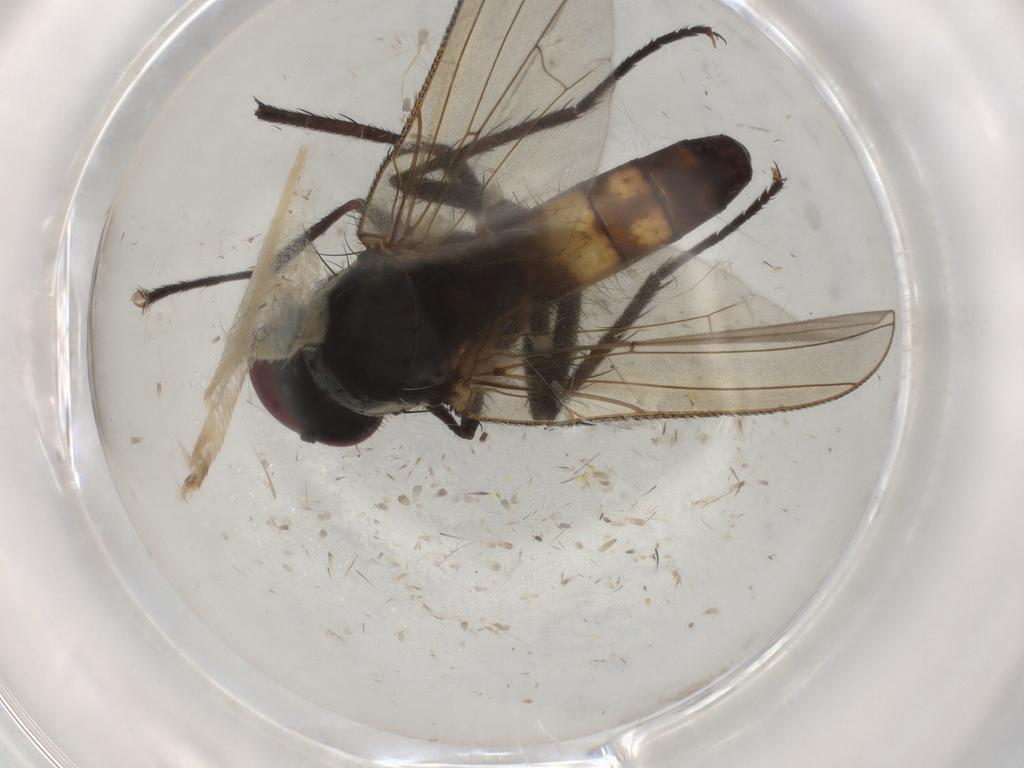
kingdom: Animalia
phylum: Arthropoda
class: Insecta
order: Diptera
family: Anthomyiidae
